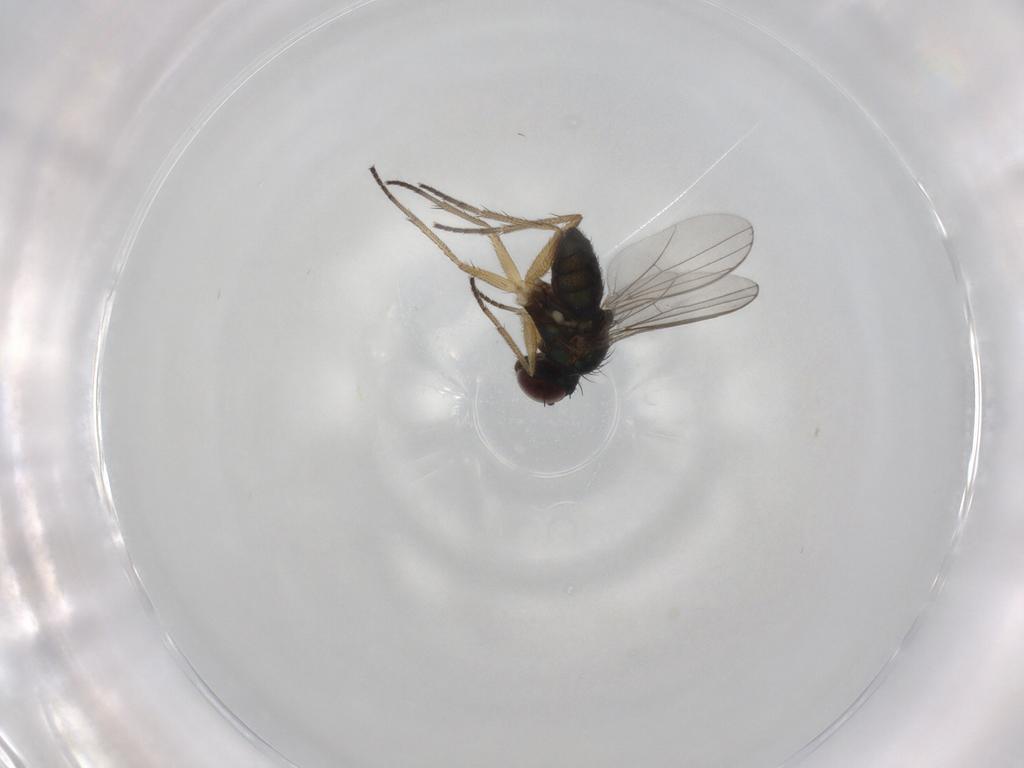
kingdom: Animalia
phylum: Arthropoda
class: Insecta
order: Diptera
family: Dolichopodidae
